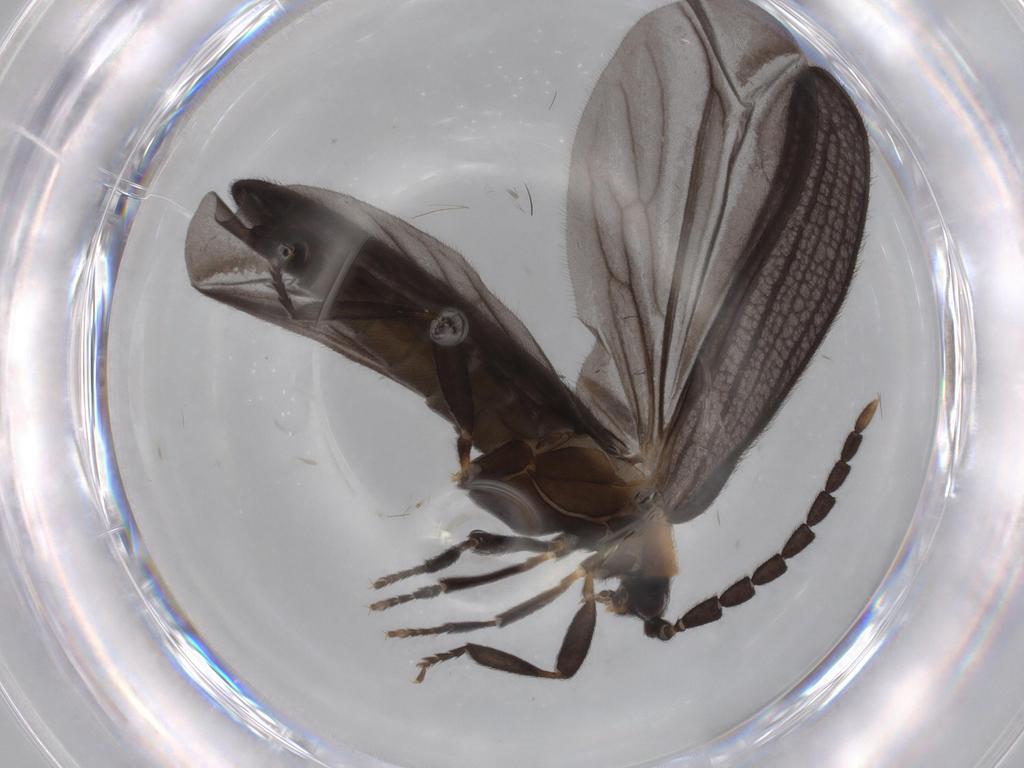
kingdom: Animalia
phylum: Arthropoda
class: Insecta
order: Coleoptera
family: Lycidae
